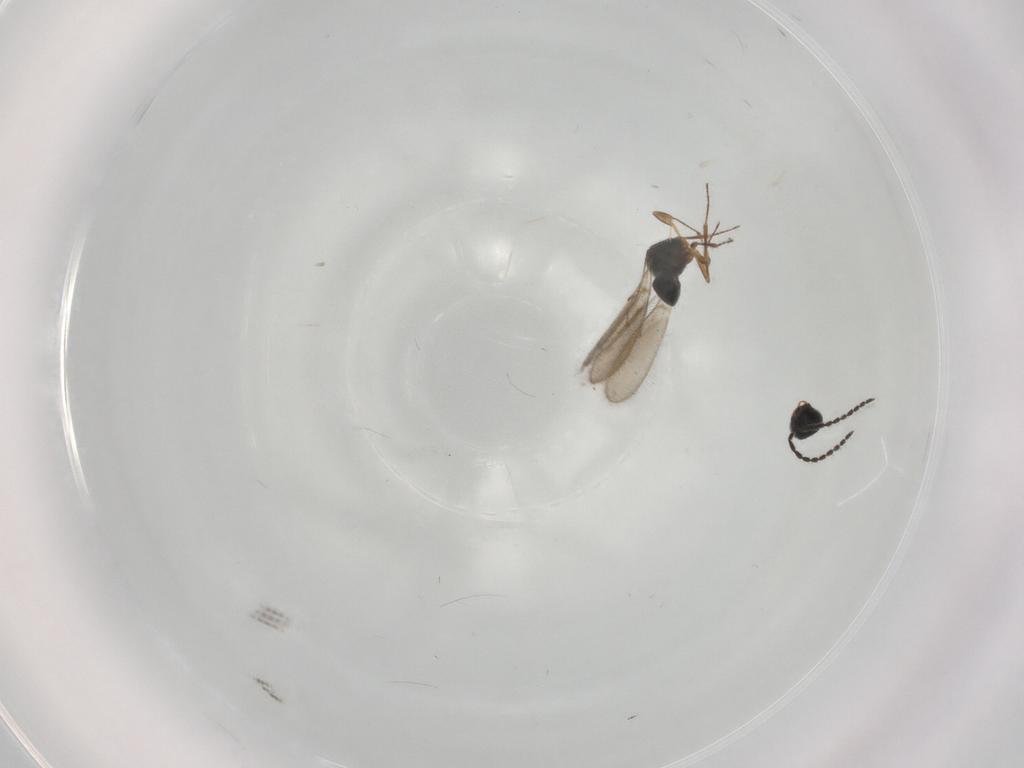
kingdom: Animalia
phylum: Arthropoda
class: Insecta
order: Hymenoptera
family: Scelionidae
